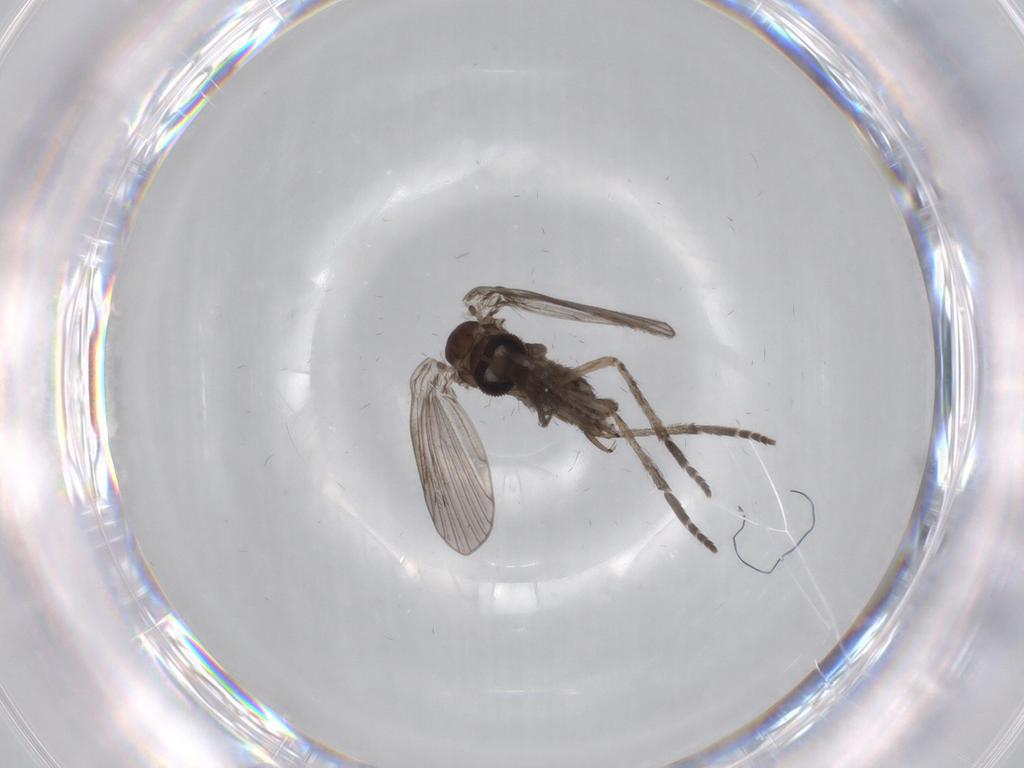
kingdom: Animalia
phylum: Arthropoda
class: Insecta
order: Diptera
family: Psychodidae
